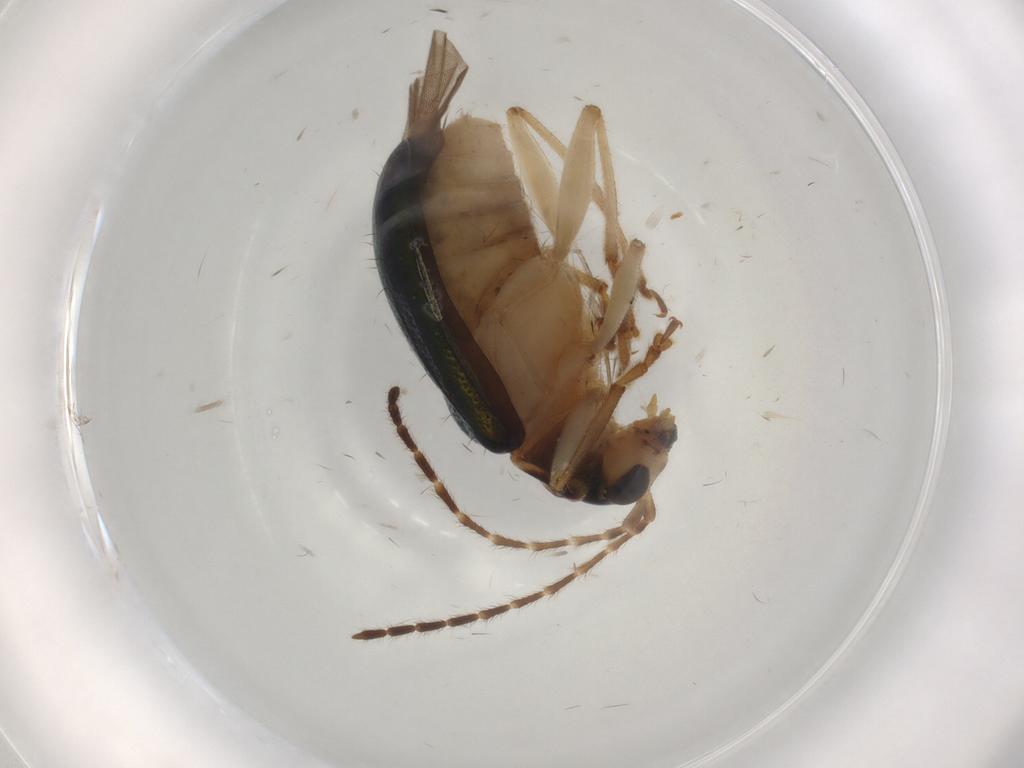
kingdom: Animalia
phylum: Arthropoda
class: Insecta
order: Coleoptera
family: Chrysomelidae
